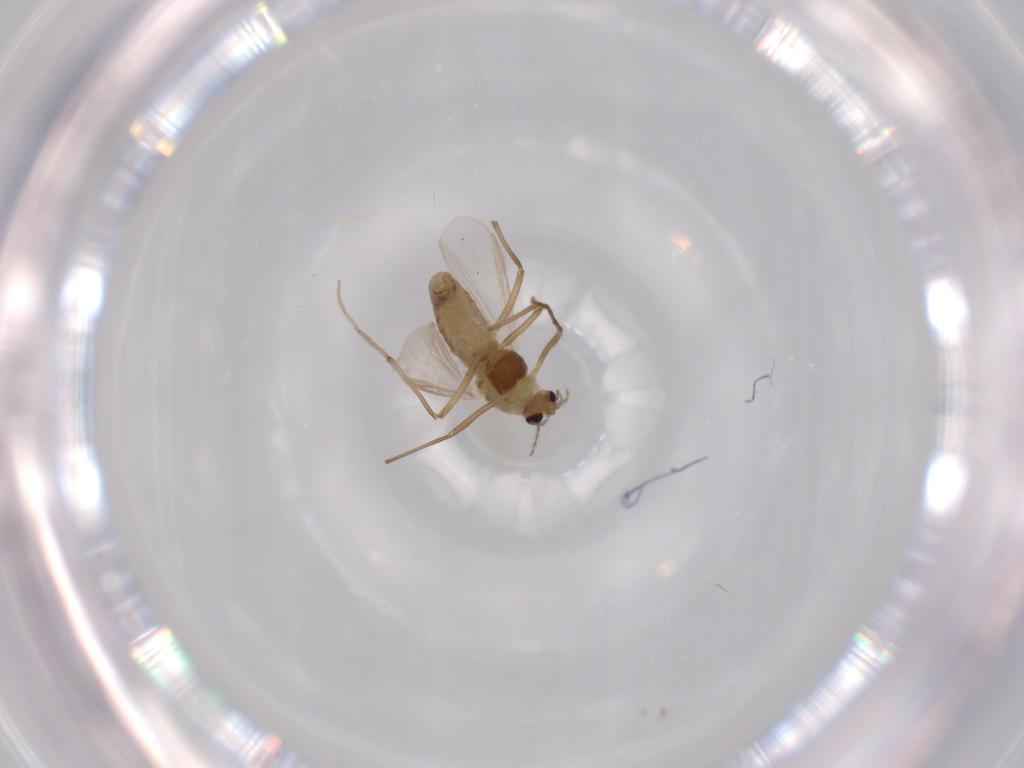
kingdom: Animalia
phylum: Arthropoda
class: Insecta
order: Diptera
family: Chironomidae
